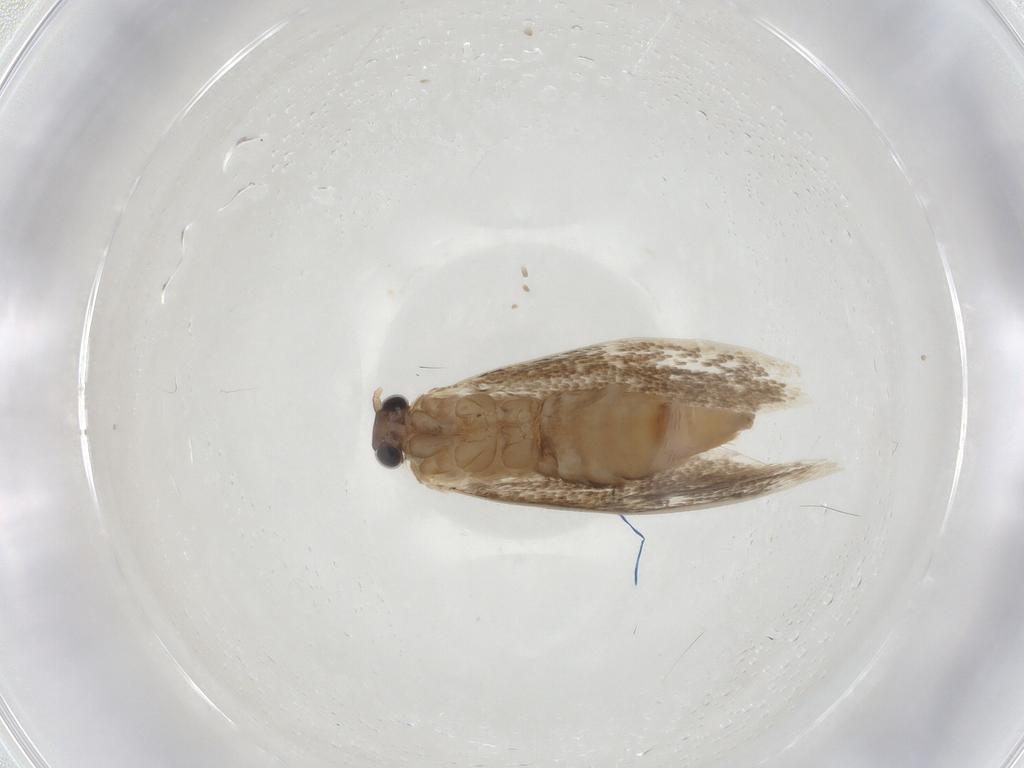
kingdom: Animalia
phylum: Arthropoda
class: Insecta
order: Lepidoptera
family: Tineidae
